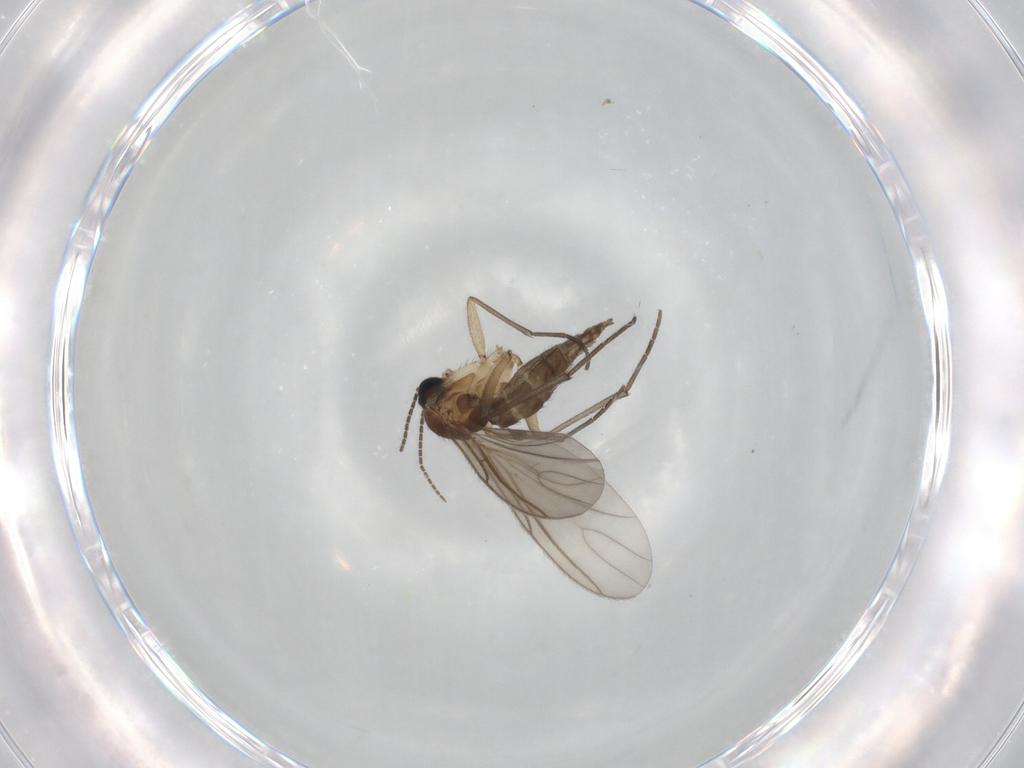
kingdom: Animalia
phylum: Arthropoda
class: Insecta
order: Diptera
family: Sciaridae
